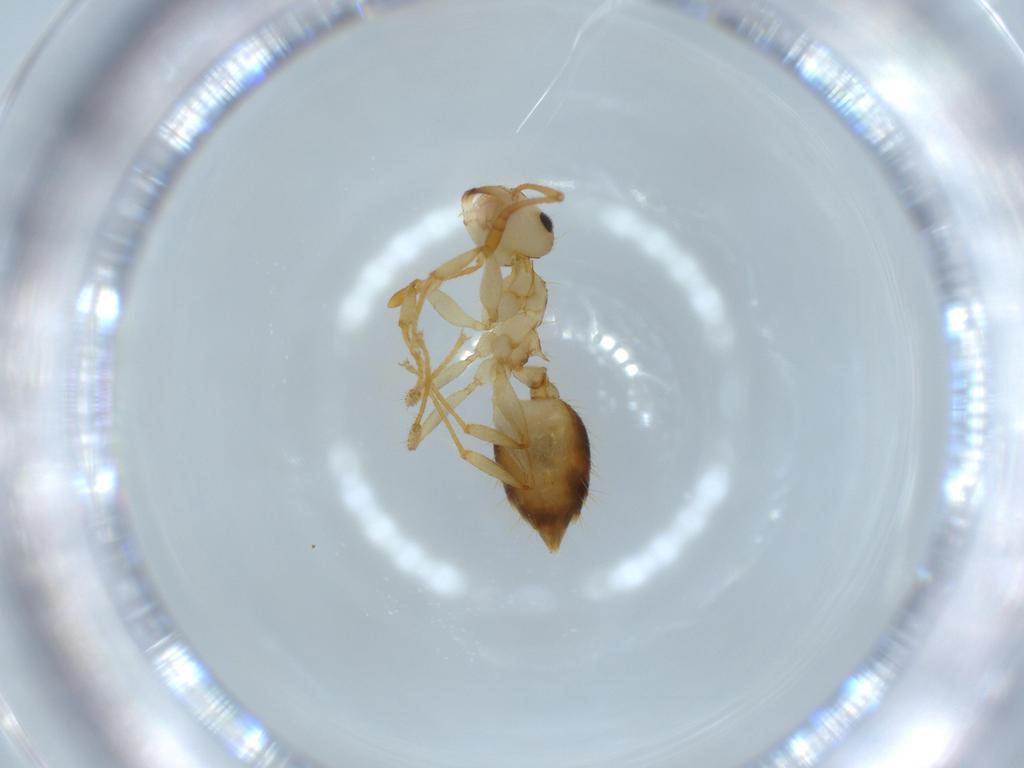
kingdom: Animalia
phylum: Arthropoda
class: Insecta
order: Hymenoptera
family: Formicidae
